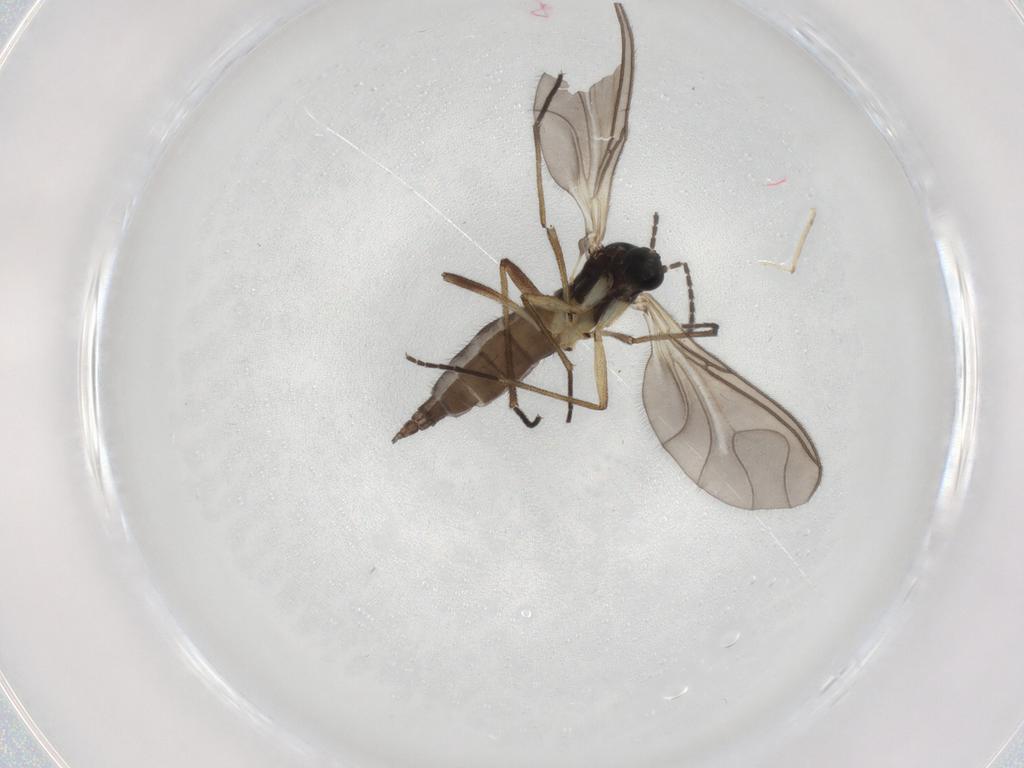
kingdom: Animalia
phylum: Arthropoda
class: Insecta
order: Diptera
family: Sciaridae
